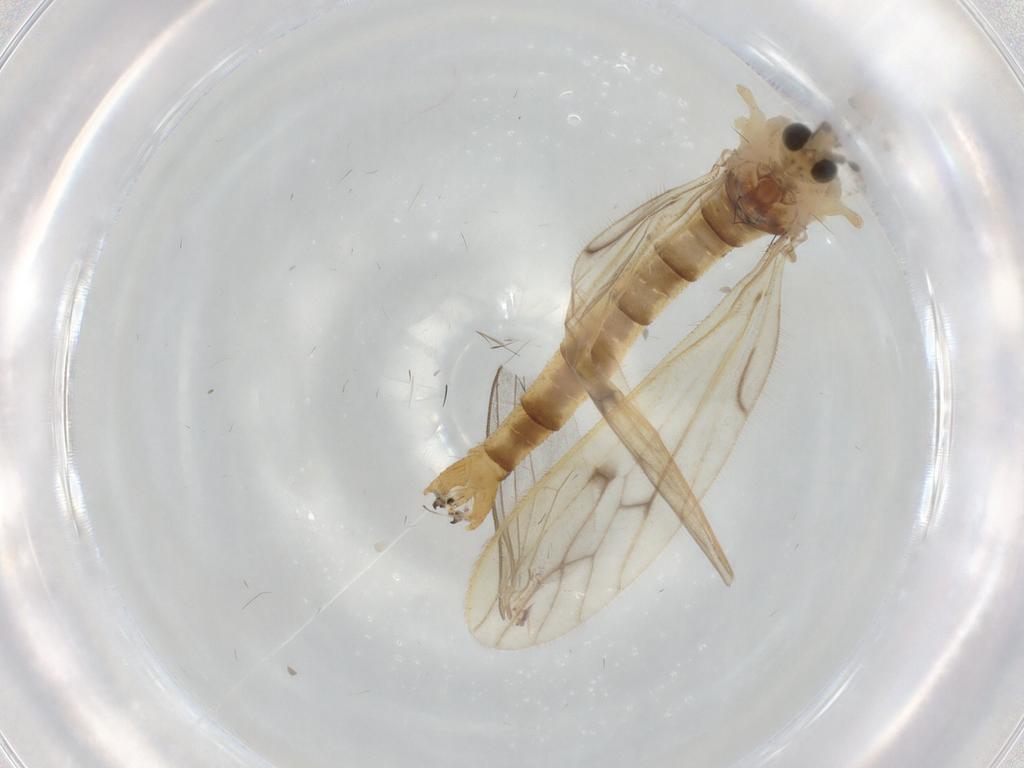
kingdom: Animalia
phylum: Arthropoda
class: Insecta
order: Diptera
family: Limoniidae
